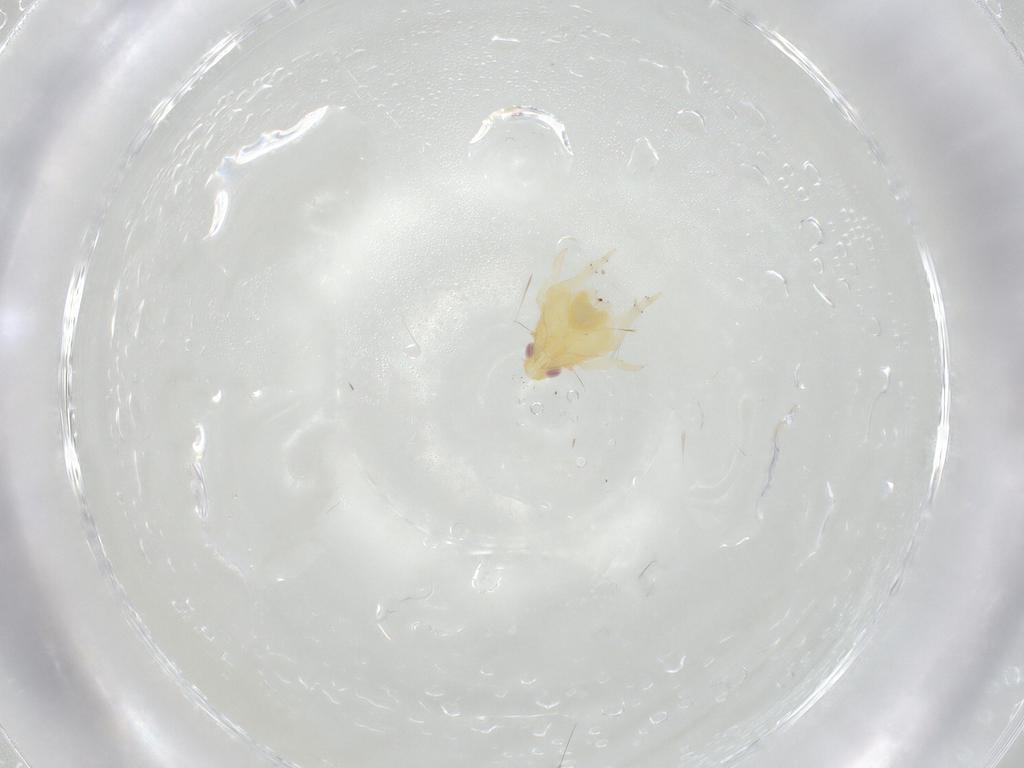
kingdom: Animalia
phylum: Arthropoda
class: Insecta
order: Hemiptera
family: Tropiduchidae
